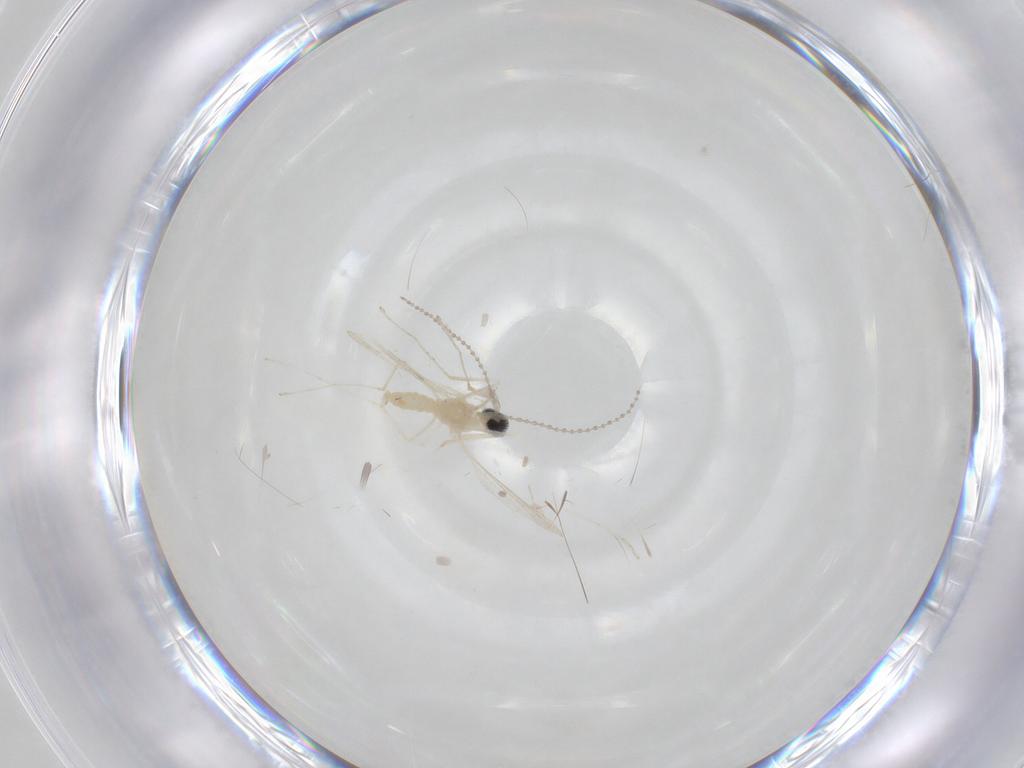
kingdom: Animalia
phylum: Arthropoda
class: Insecta
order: Diptera
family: Cecidomyiidae
